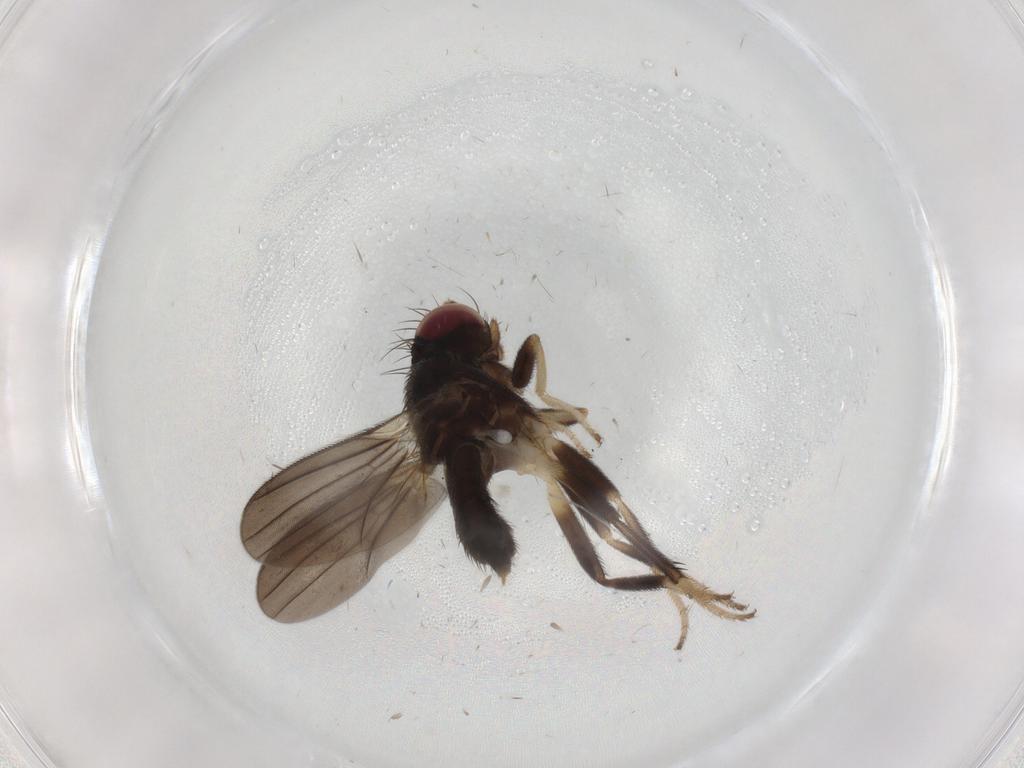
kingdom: Animalia
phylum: Arthropoda
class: Insecta
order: Diptera
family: Clusiidae
